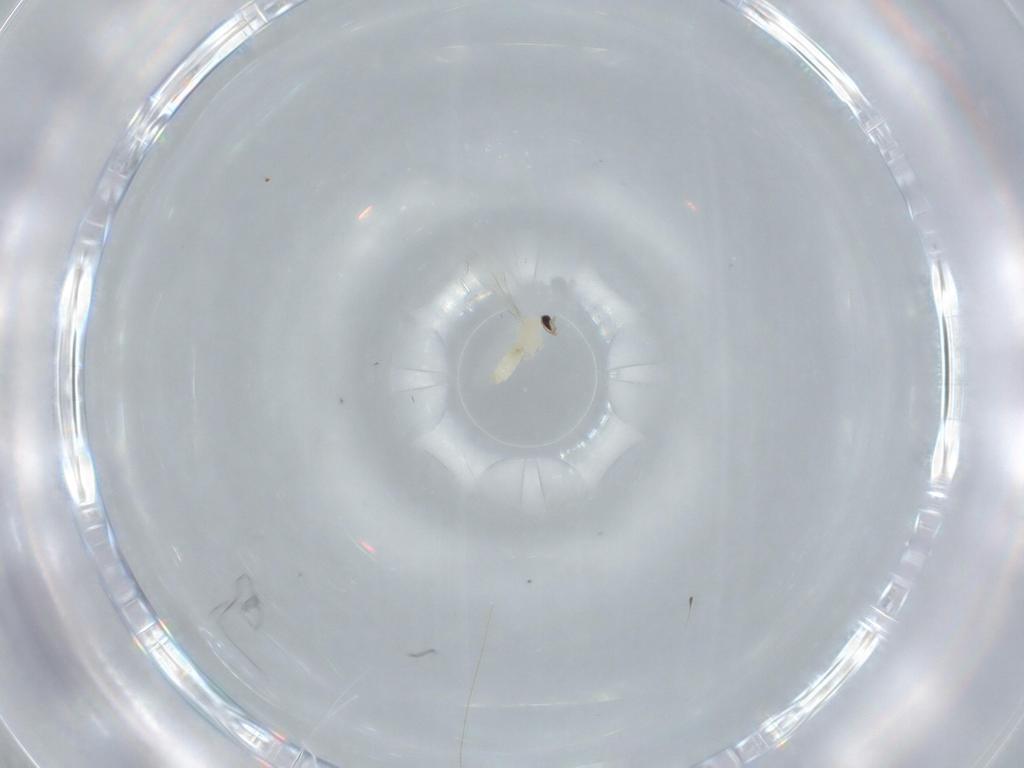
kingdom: Animalia
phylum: Arthropoda
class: Insecta
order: Diptera
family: Cecidomyiidae
